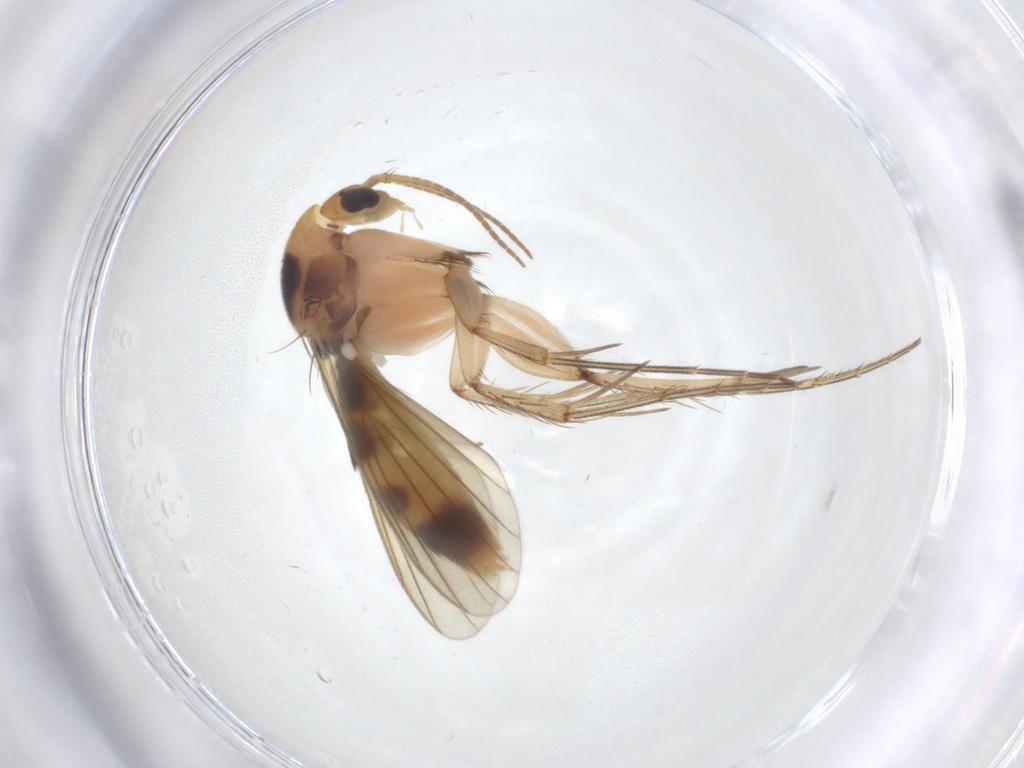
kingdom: Animalia
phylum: Arthropoda
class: Insecta
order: Diptera
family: Mycetophilidae
